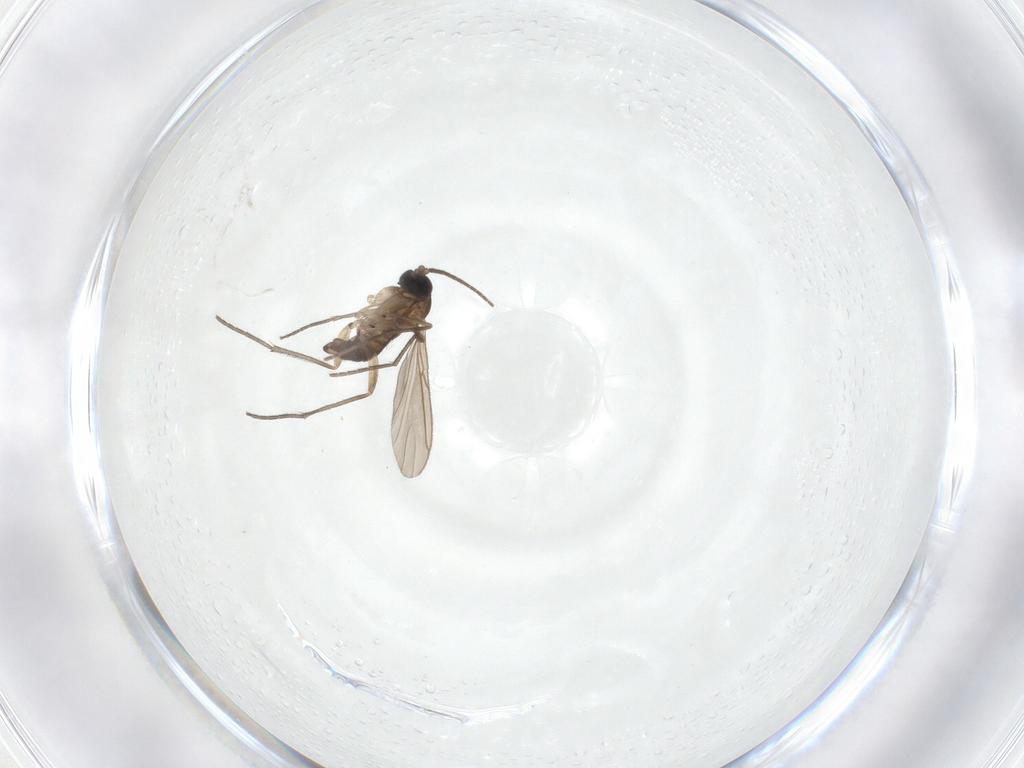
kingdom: Animalia
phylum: Arthropoda
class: Insecta
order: Diptera
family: Sciaridae
